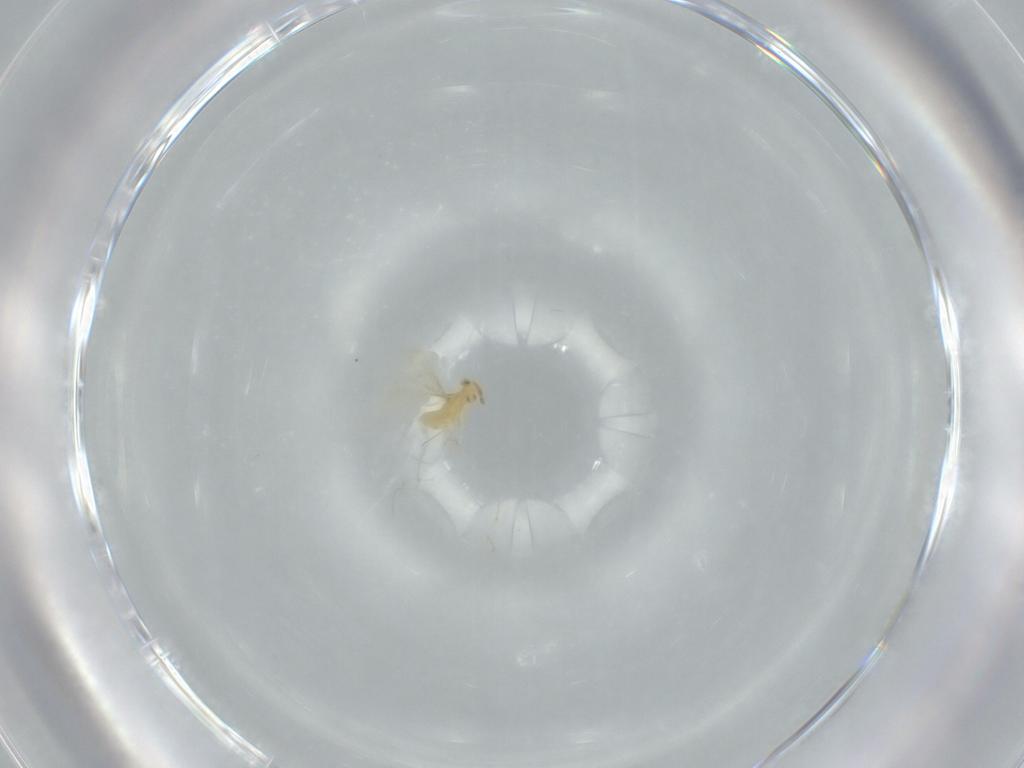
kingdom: Animalia
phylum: Arthropoda
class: Insecta
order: Hymenoptera
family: Aphelinidae
